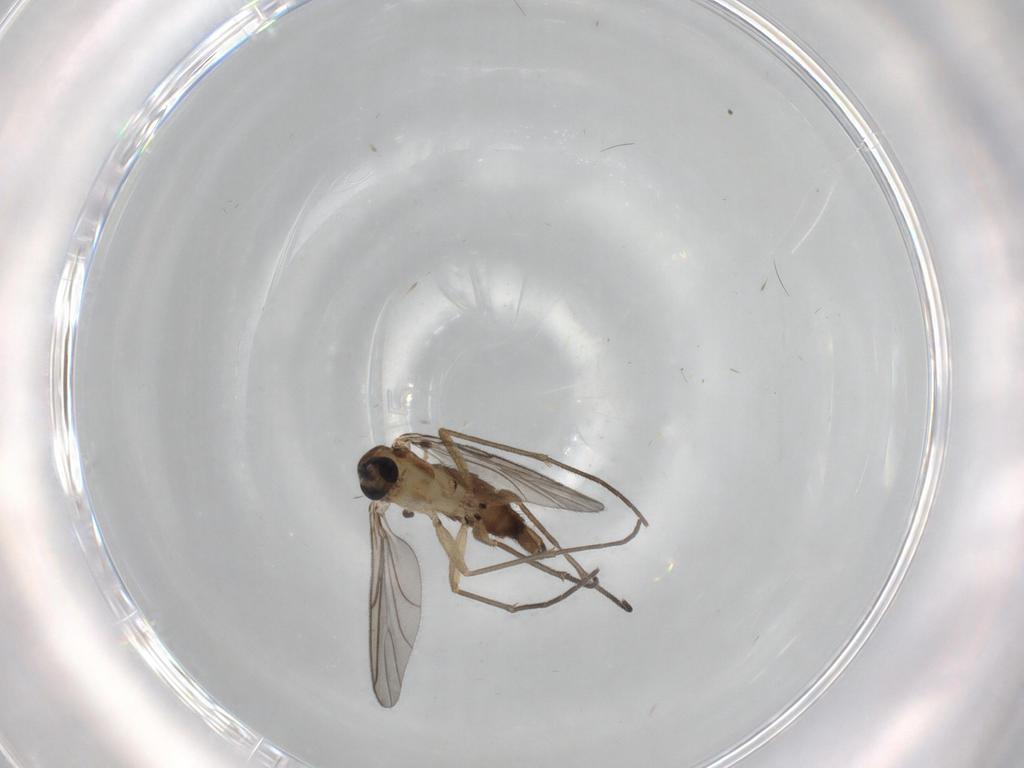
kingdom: Animalia
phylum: Arthropoda
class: Insecta
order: Diptera
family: Sciaridae
